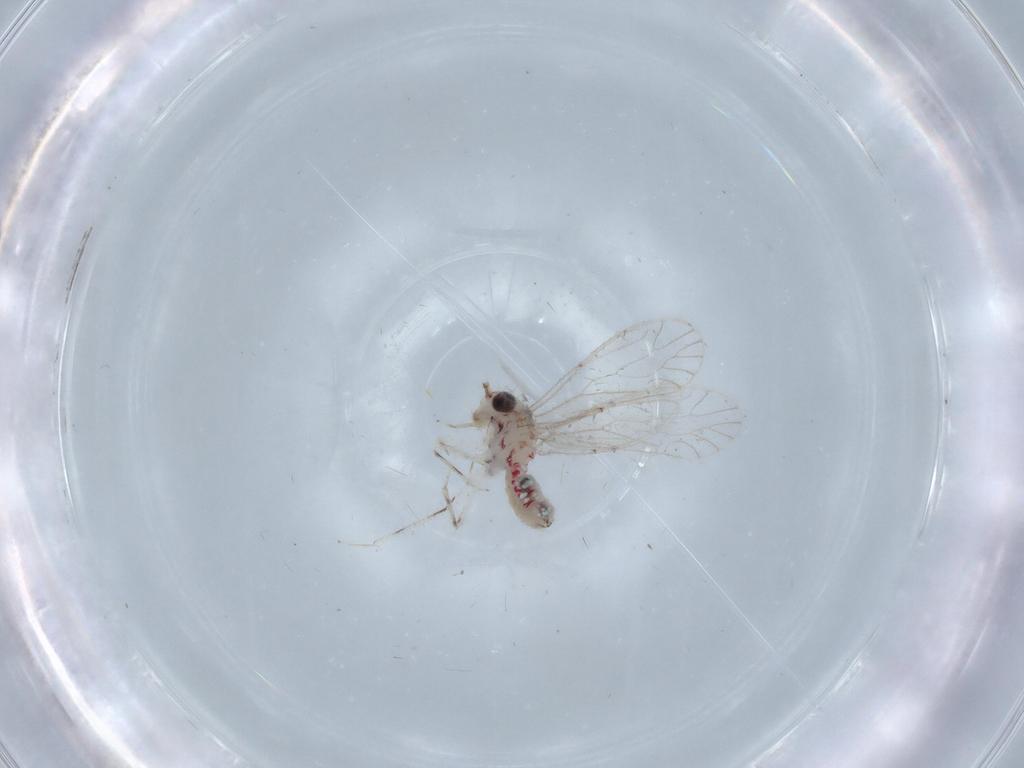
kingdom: Animalia
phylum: Arthropoda
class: Insecta
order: Psocodea
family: Caeciliusidae
